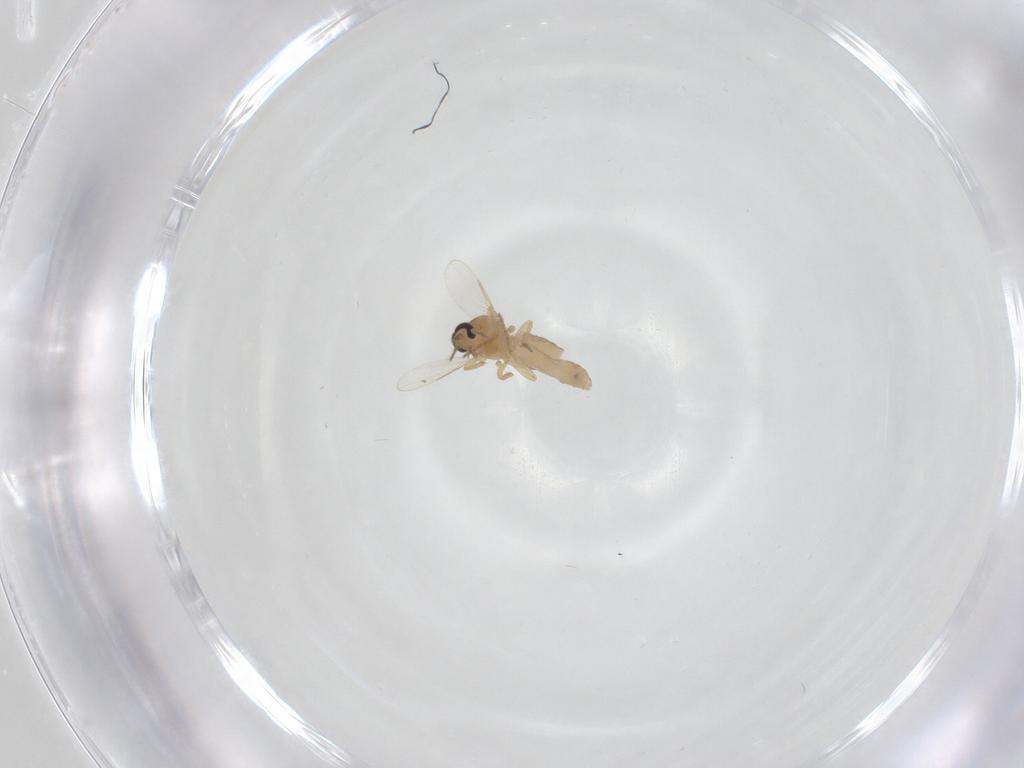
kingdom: Animalia
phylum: Arthropoda
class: Insecta
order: Diptera
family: Ceratopogonidae
